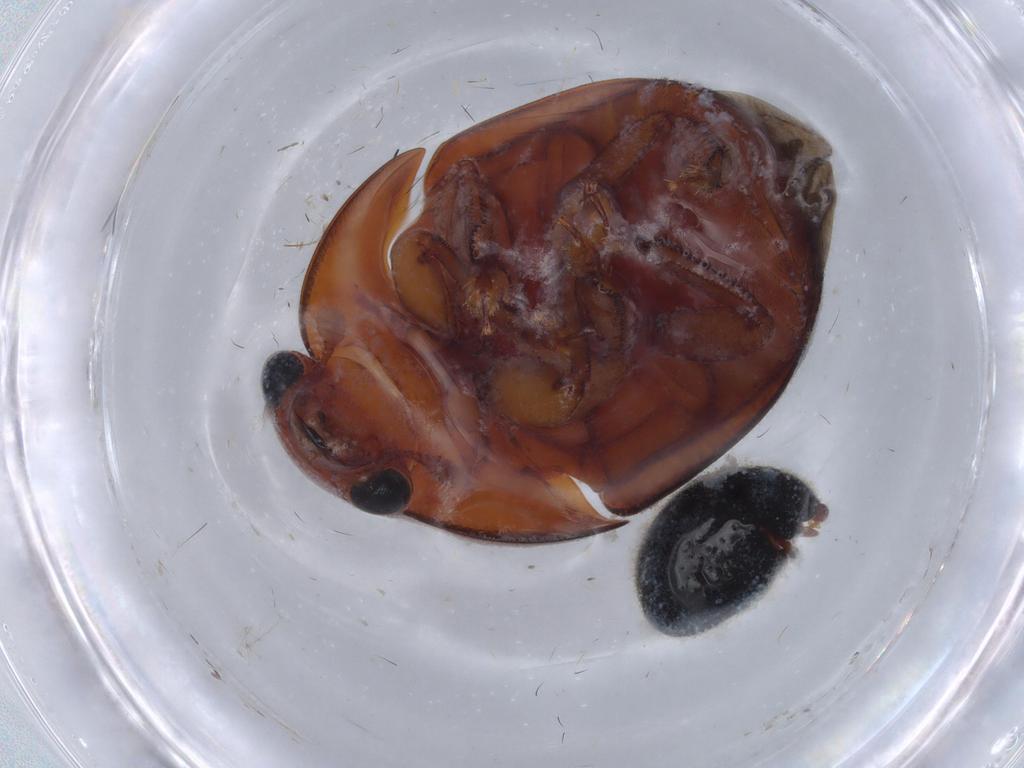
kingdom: Animalia
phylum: Arthropoda
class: Insecta
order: Coleoptera
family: Nitidulidae
